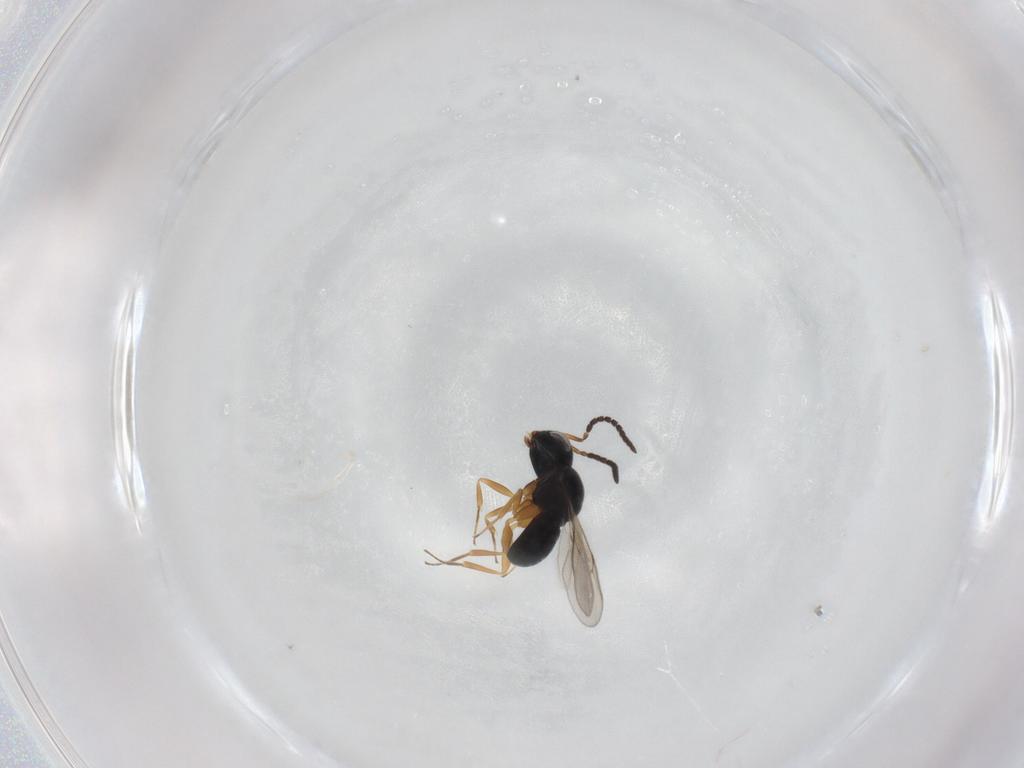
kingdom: Animalia
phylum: Arthropoda
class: Insecta
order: Hymenoptera
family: Scelionidae
